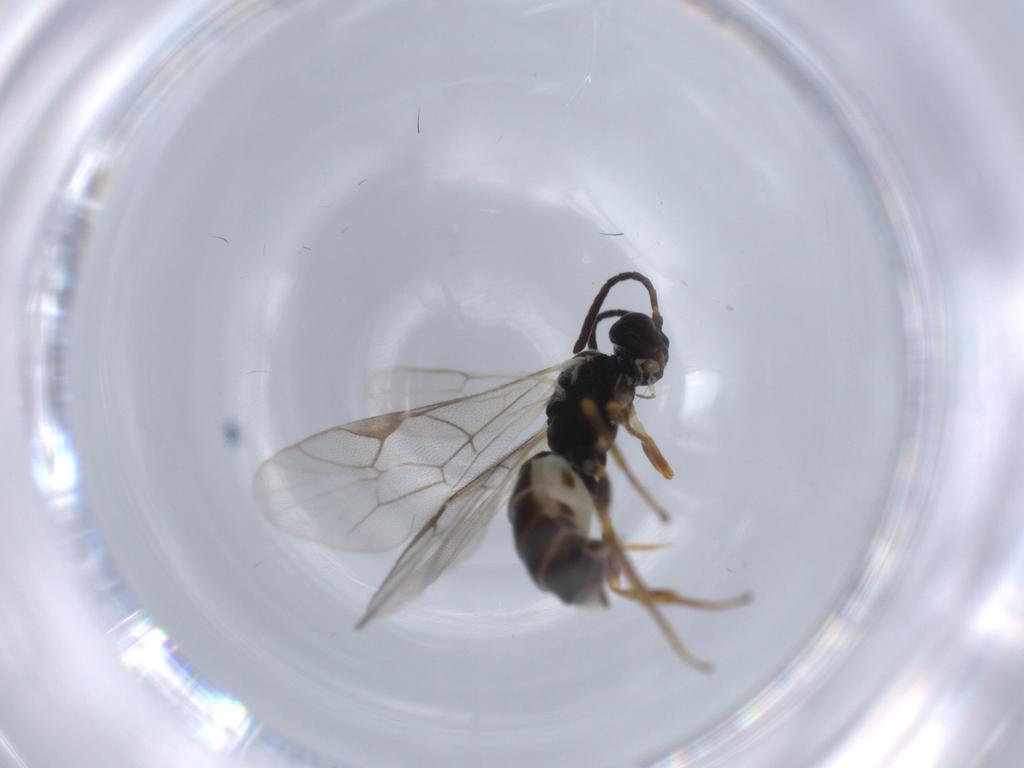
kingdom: Animalia
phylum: Arthropoda
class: Insecta
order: Hymenoptera
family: Ichneumonidae
